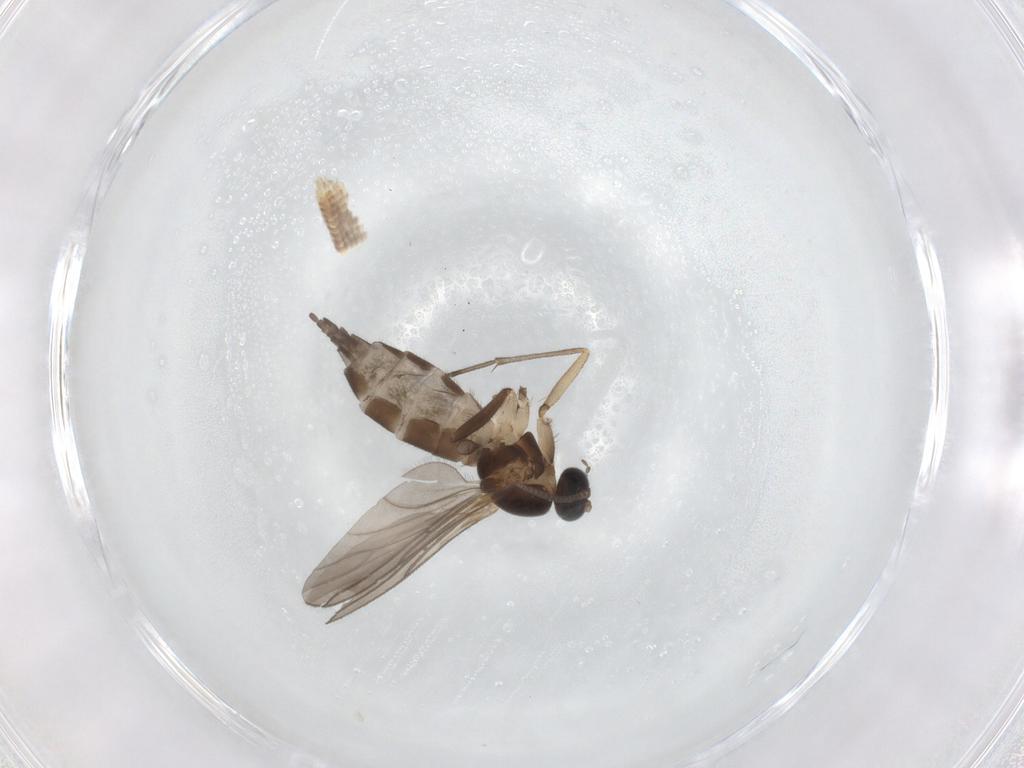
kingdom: Animalia
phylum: Arthropoda
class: Insecta
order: Diptera
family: Sciaridae
